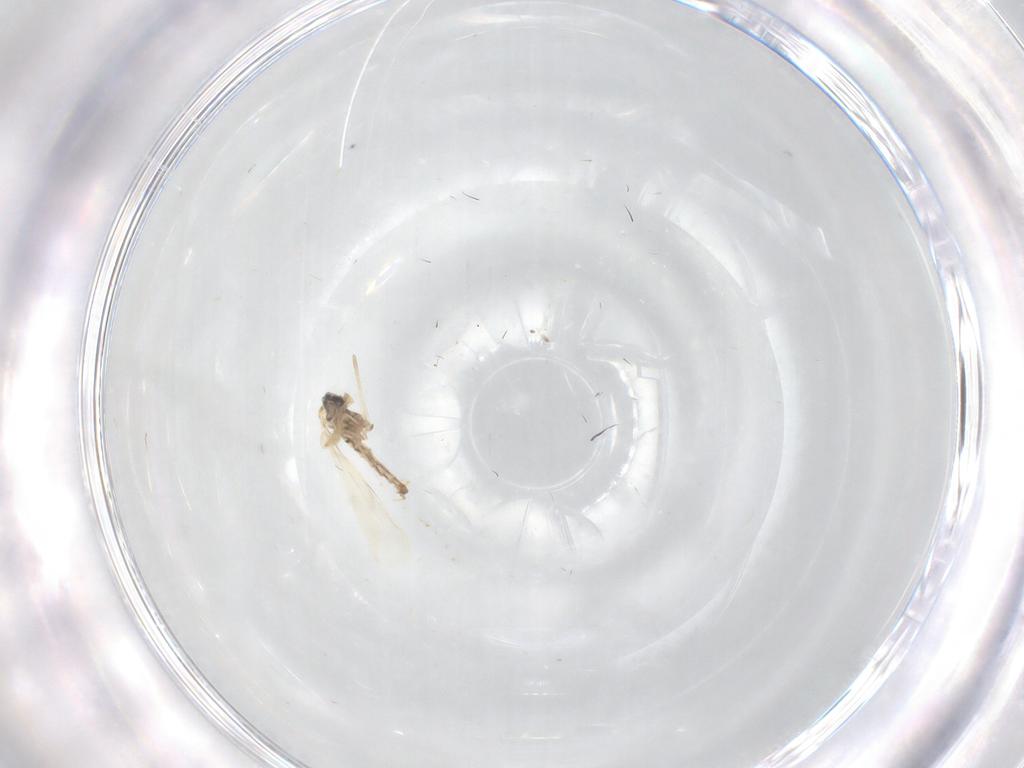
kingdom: Animalia
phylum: Arthropoda
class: Insecta
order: Diptera
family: Cecidomyiidae
